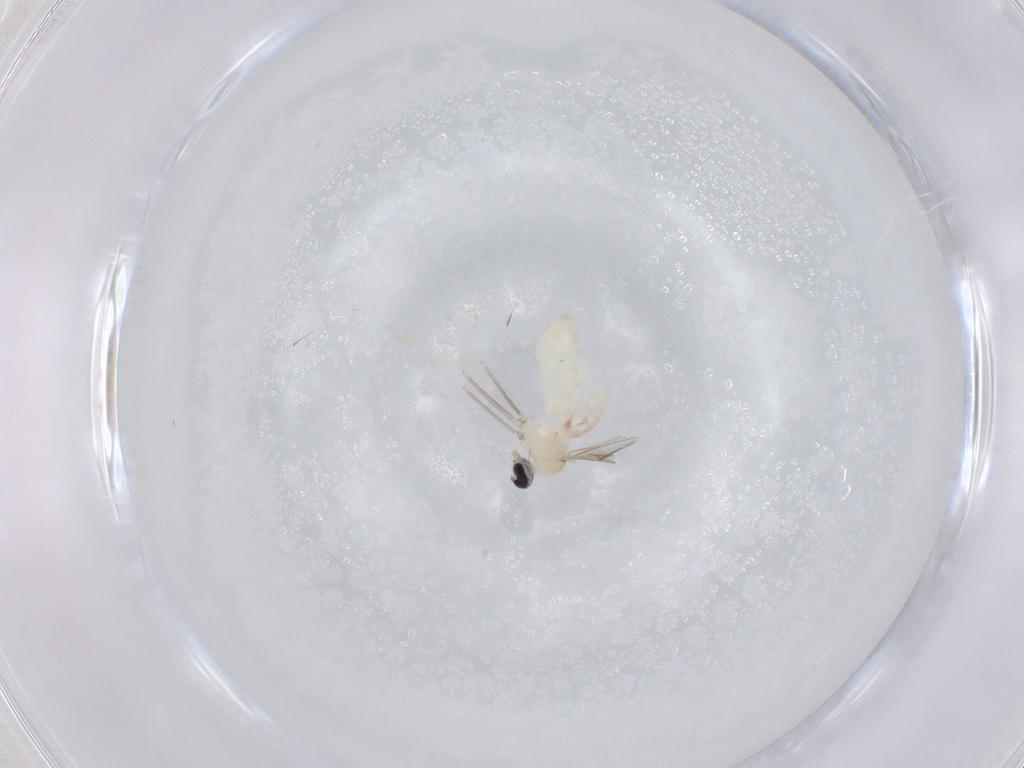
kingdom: Animalia
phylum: Arthropoda
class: Insecta
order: Diptera
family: Cecidomyiidae
